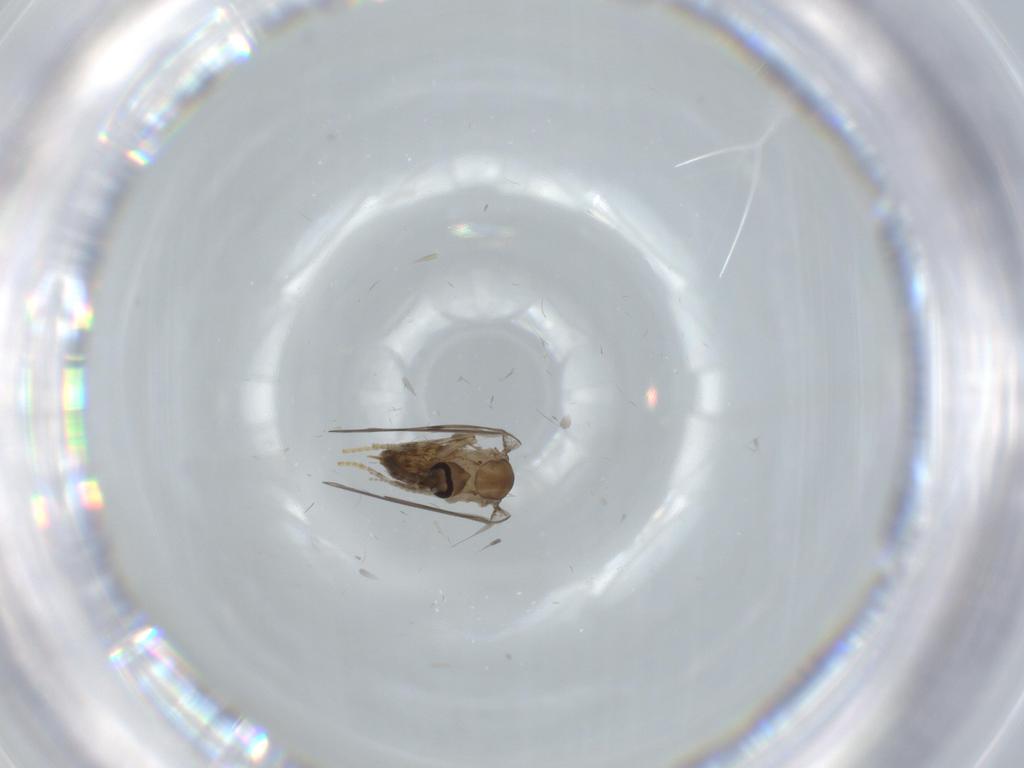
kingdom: Animalia
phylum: Arthropoda
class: Insecta
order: Diptera
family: Psychodidae
